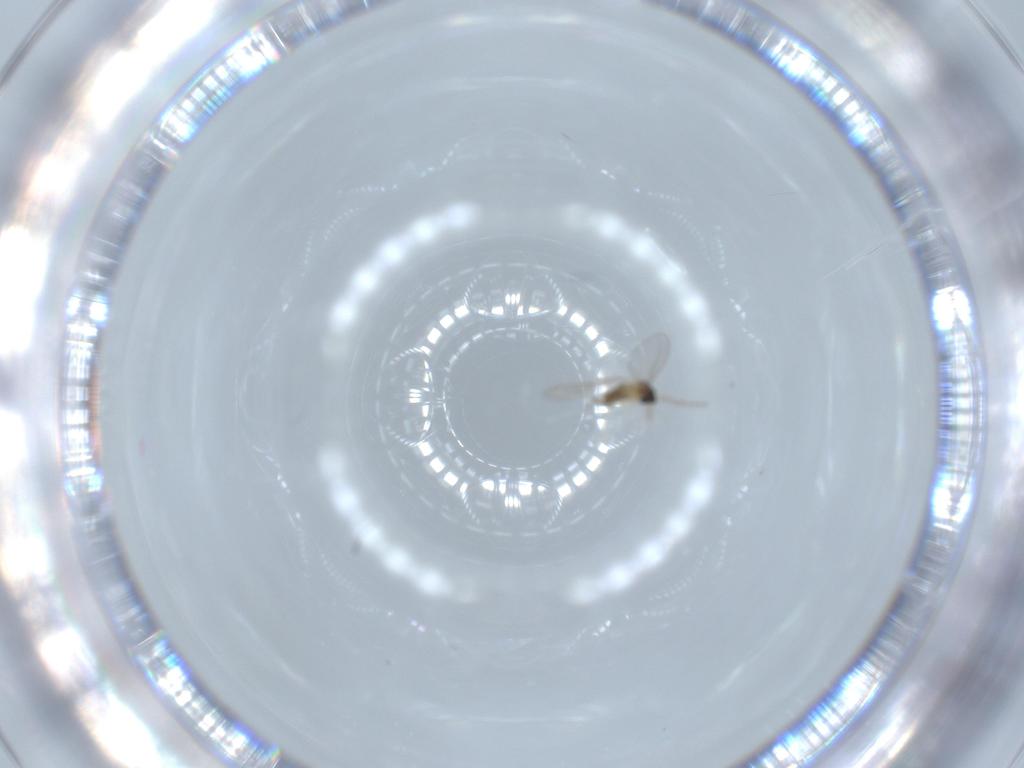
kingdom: Animalia
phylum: Arthropoda
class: Insecta
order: Diptera
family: Cecidomyiidae
